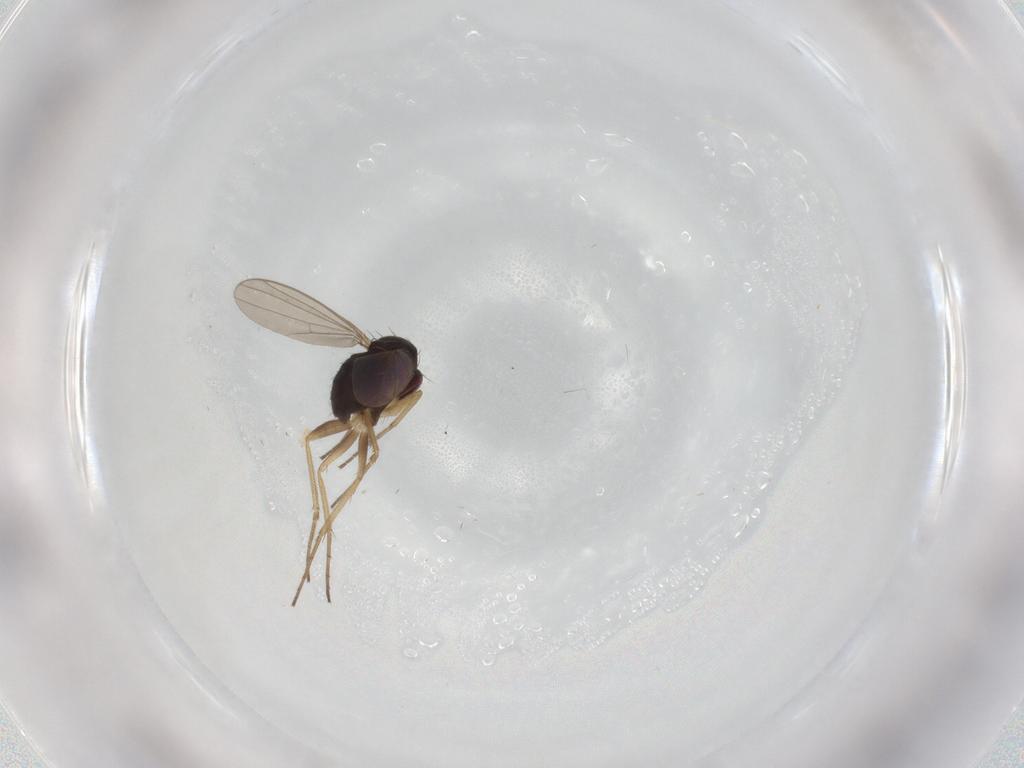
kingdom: Animalia
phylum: Arthropoda
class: Insecta
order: Diptera
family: Dolichopodidae
